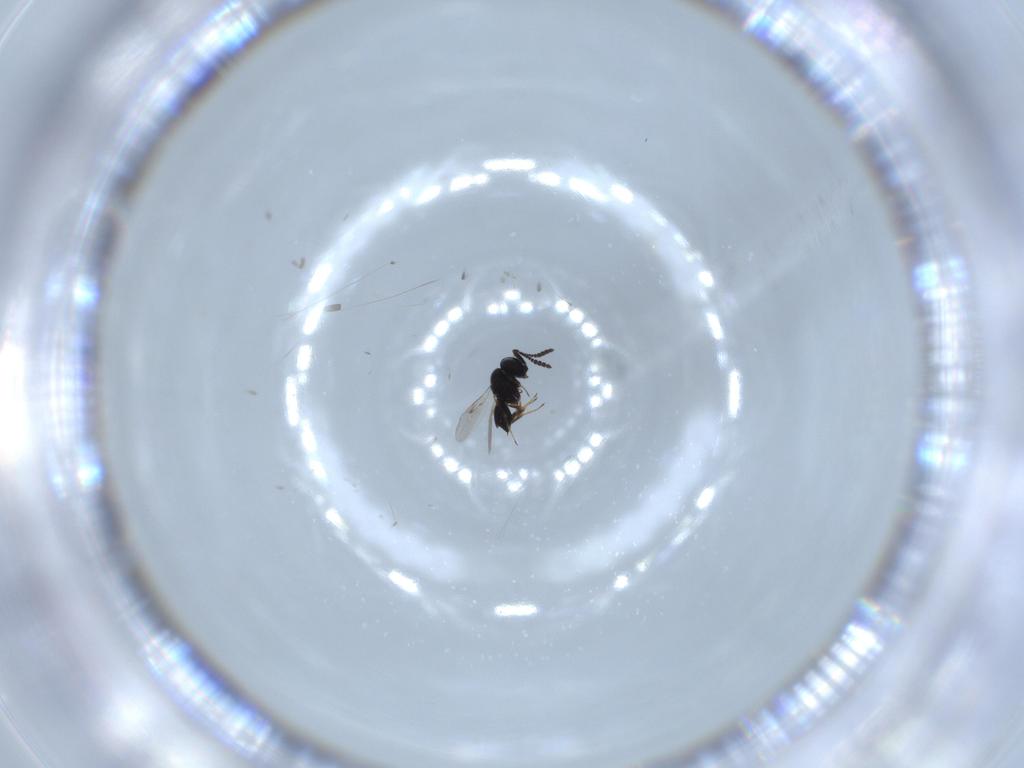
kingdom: Animalia
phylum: Arthropoda
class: Insecta
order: Hymenoptera
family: Scelionidae
